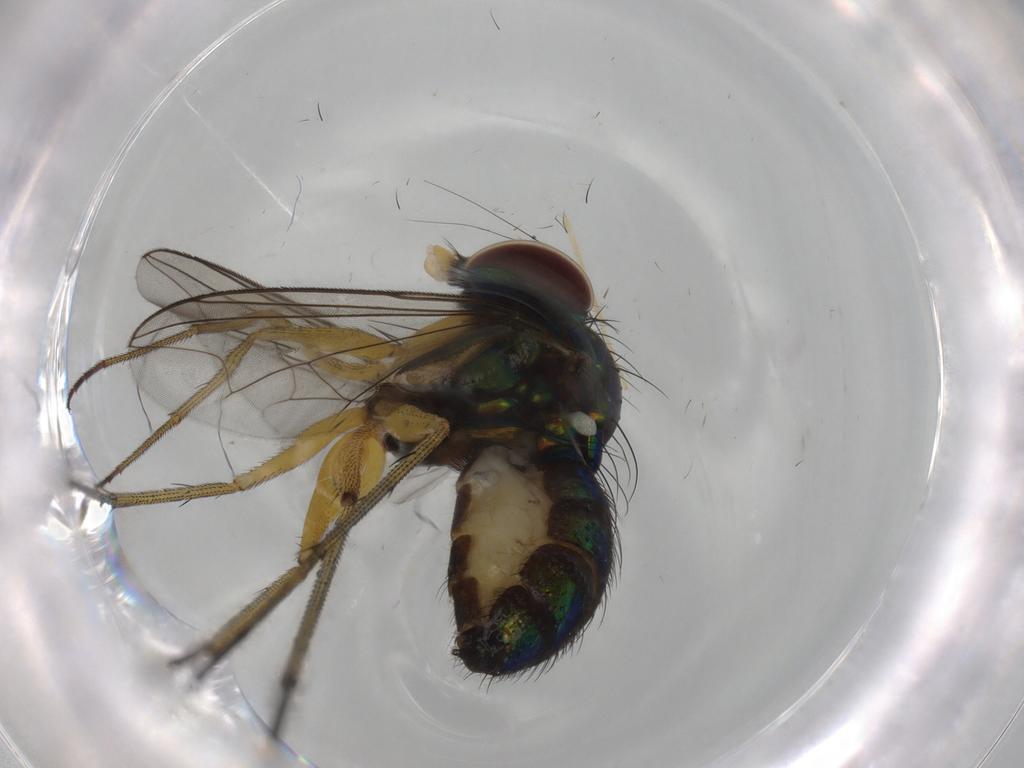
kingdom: Animalia
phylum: Arthropoda
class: Insecta
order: Diptera
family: Dolichopodidae
